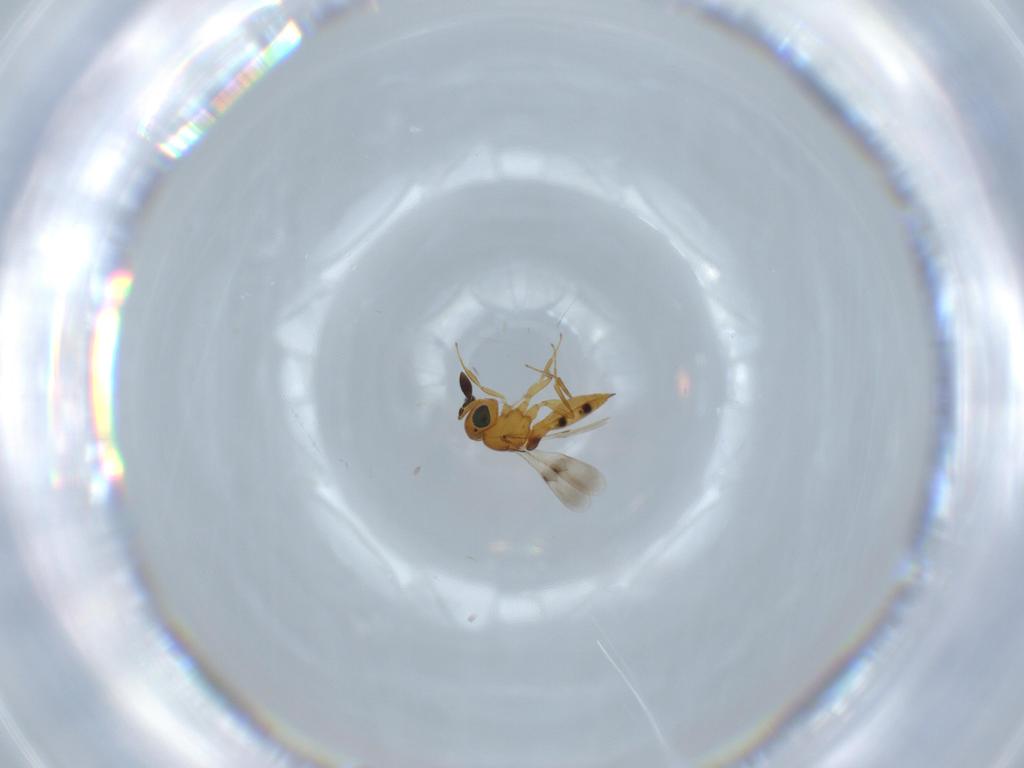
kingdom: Animalia
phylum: Arthropoda
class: Insecta
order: Hymenoptera
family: Scelionidae
